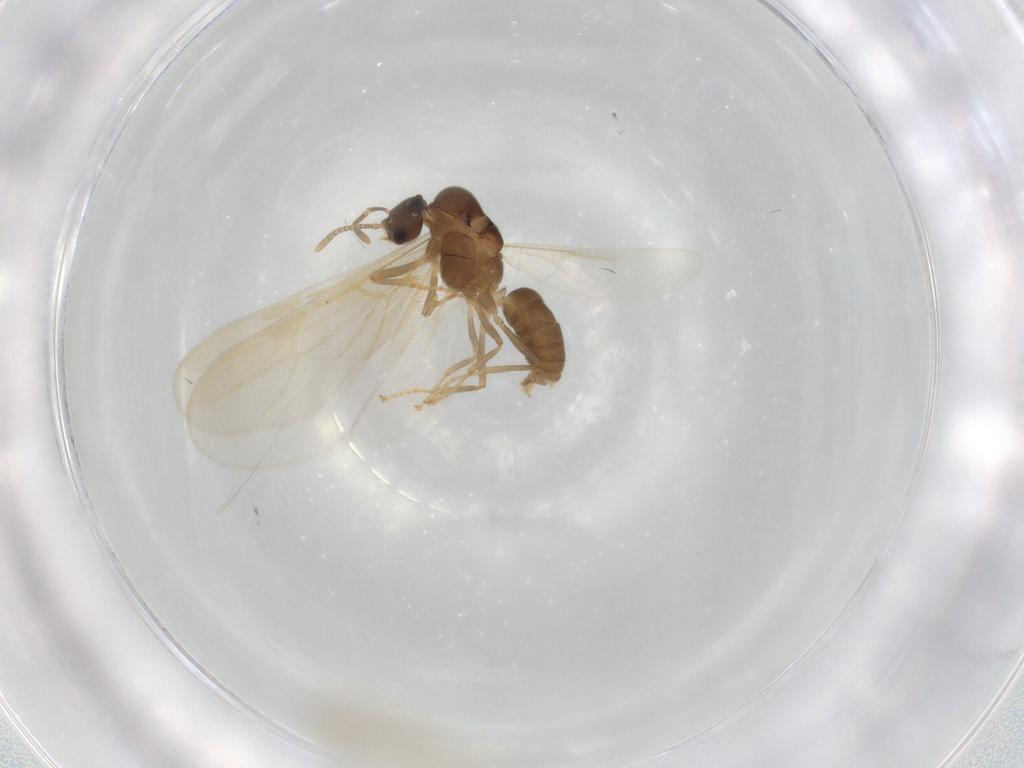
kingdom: Animalia
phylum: Arthropoda
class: Insecta
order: Hymenoptera
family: Formicidae
